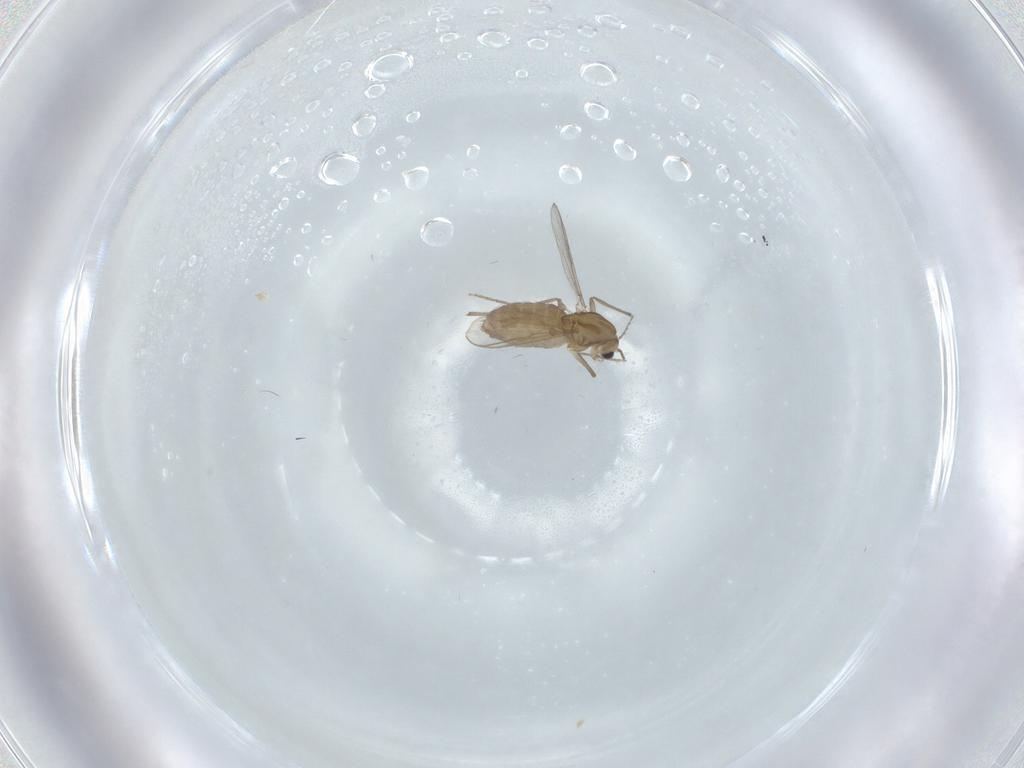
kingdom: Animalia
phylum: Arthropoda
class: Insecta
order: Diptera
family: Chironomidae
